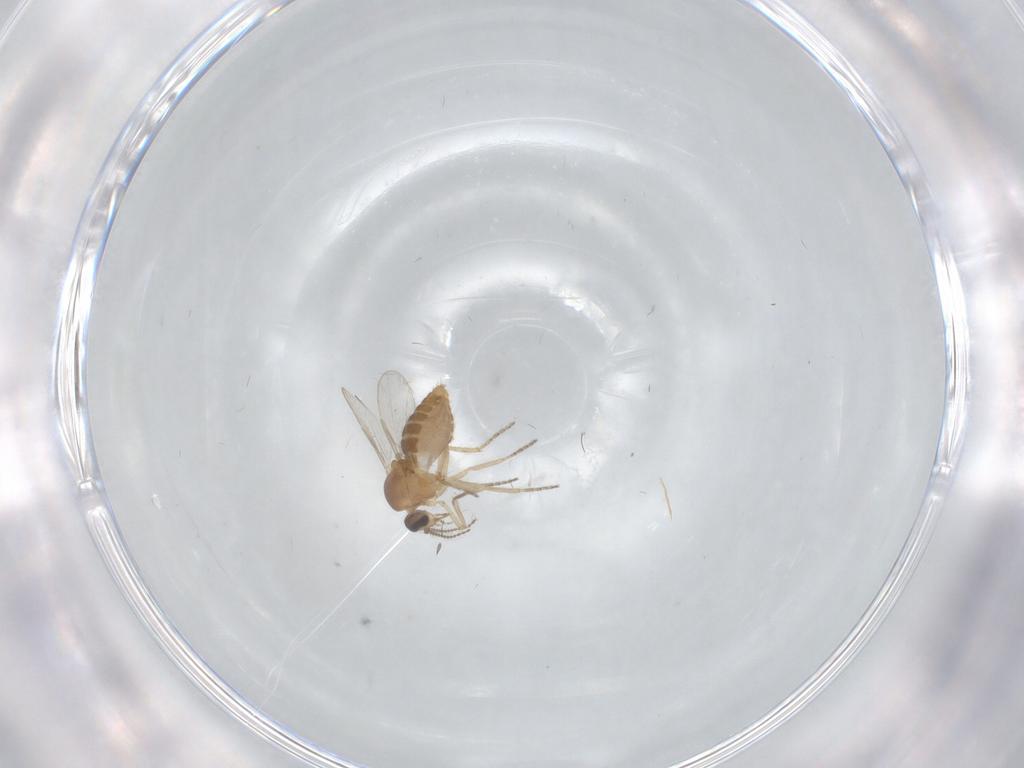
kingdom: Animalia
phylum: Arthropoda
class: Insecta
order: Diptera
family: Ceratopogonidae
